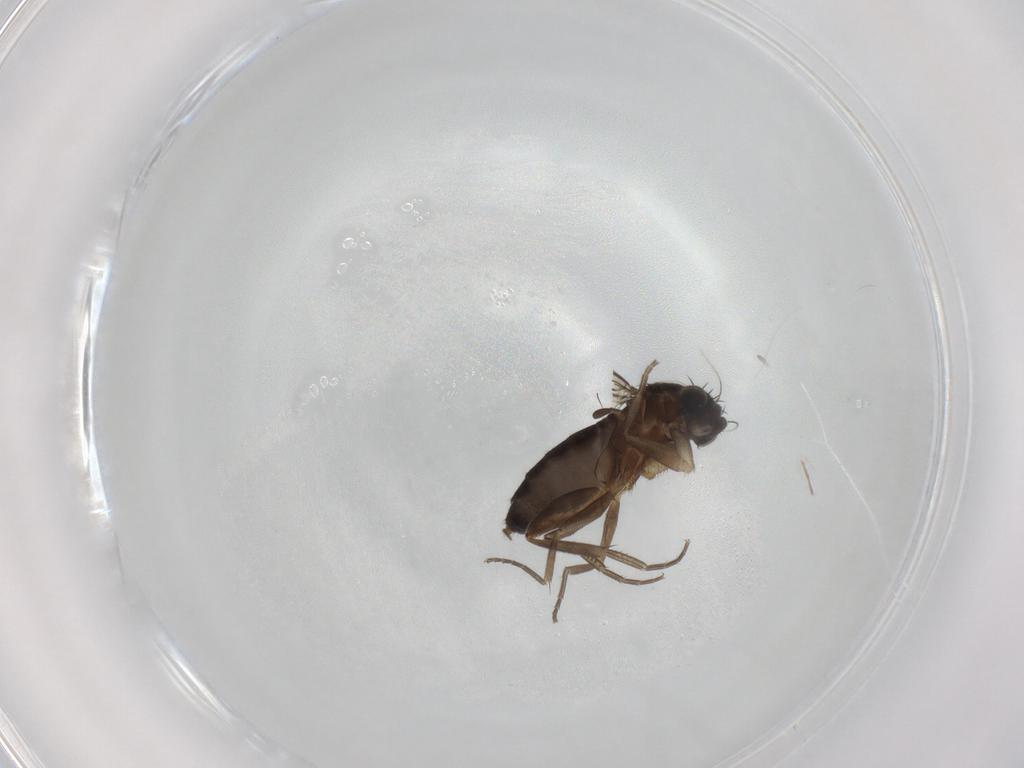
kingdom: Animalia
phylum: Arthropoda
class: Insecta
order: Diptera
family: Phoridae
